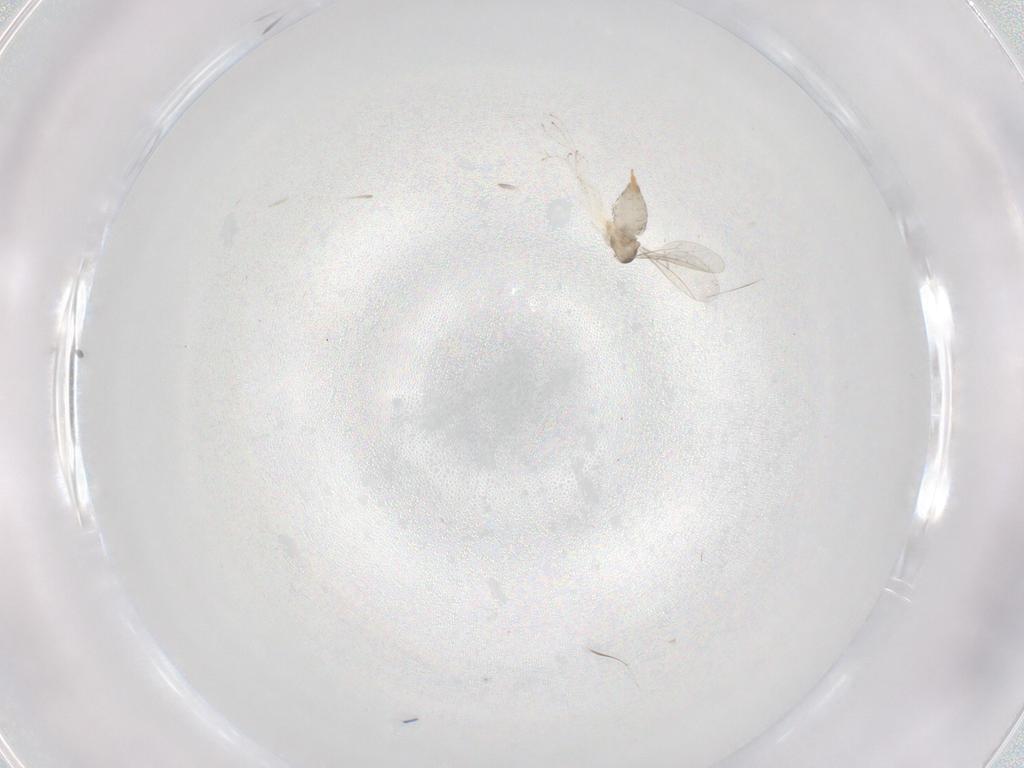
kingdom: Animalia
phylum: Arthropoda
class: Insecta
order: Diptera
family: Cecidomyiidae
